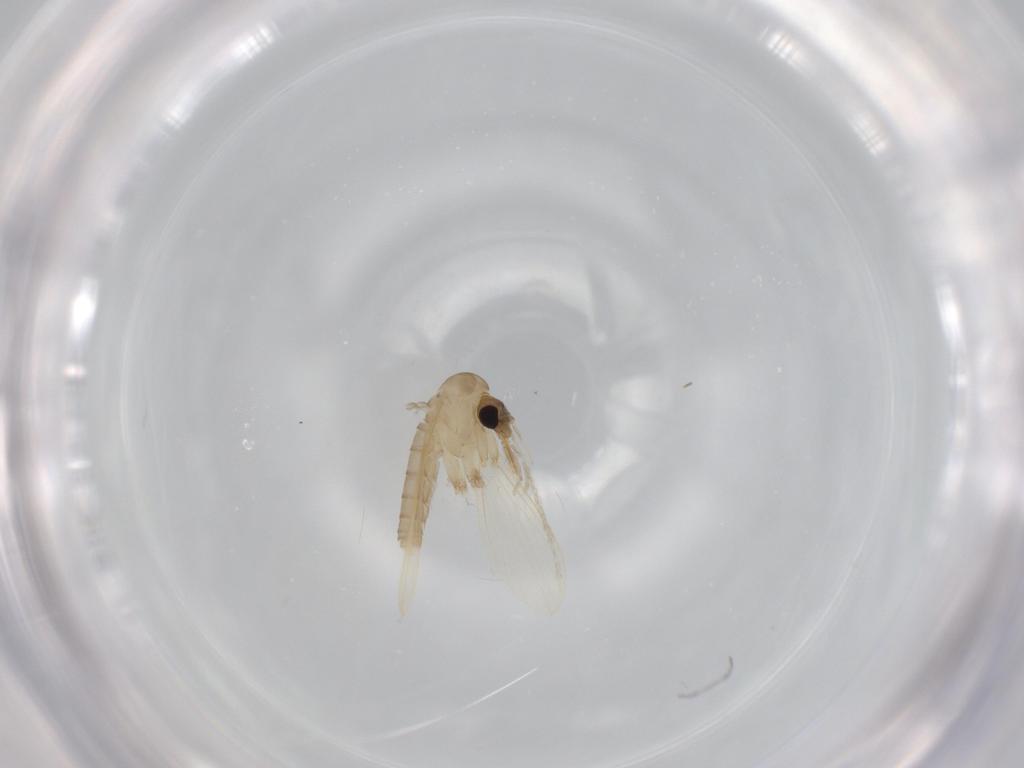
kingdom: Animalia
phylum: Arthropoda
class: Insecta
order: Diptera
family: Psychodidae
